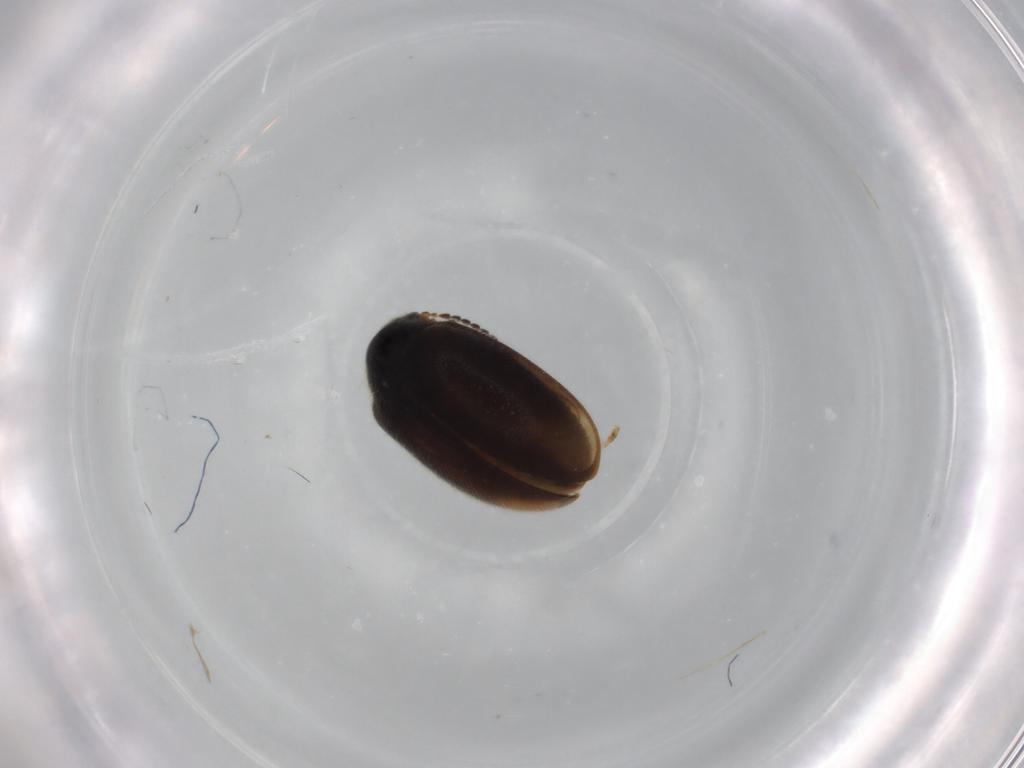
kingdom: Animalia
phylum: Arthropoda
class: Insecta
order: Coleoptera
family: Scirtidae
